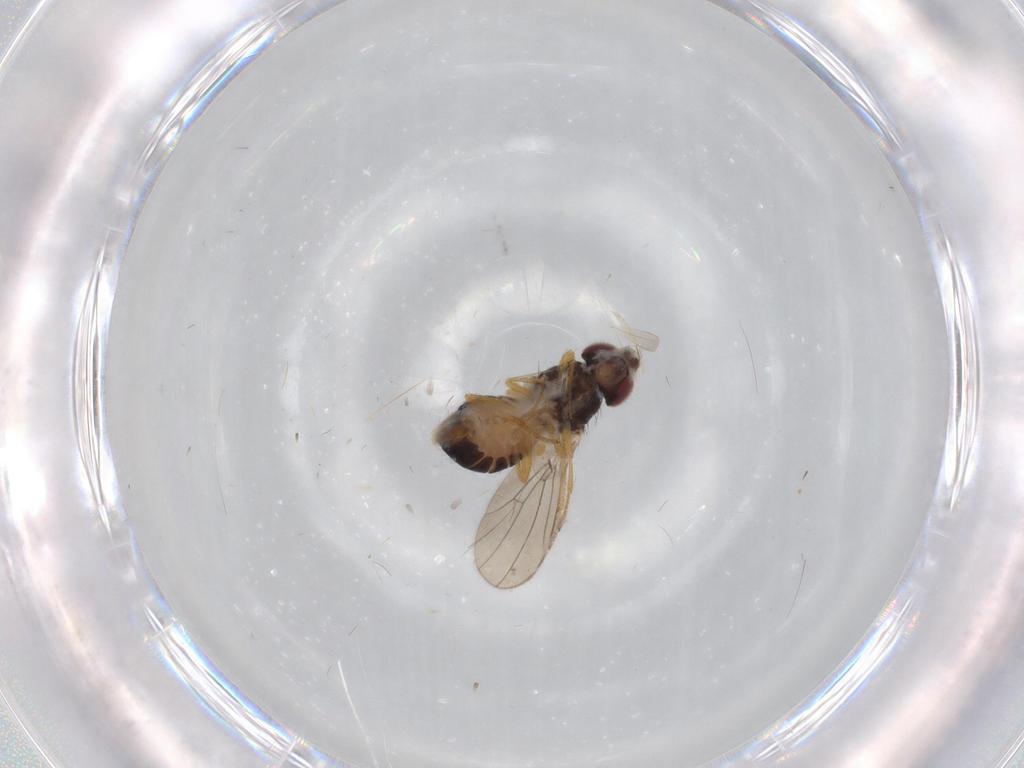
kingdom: Animalia
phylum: Arthropoda
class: Insecta
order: Diptera
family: Drosophilidae
